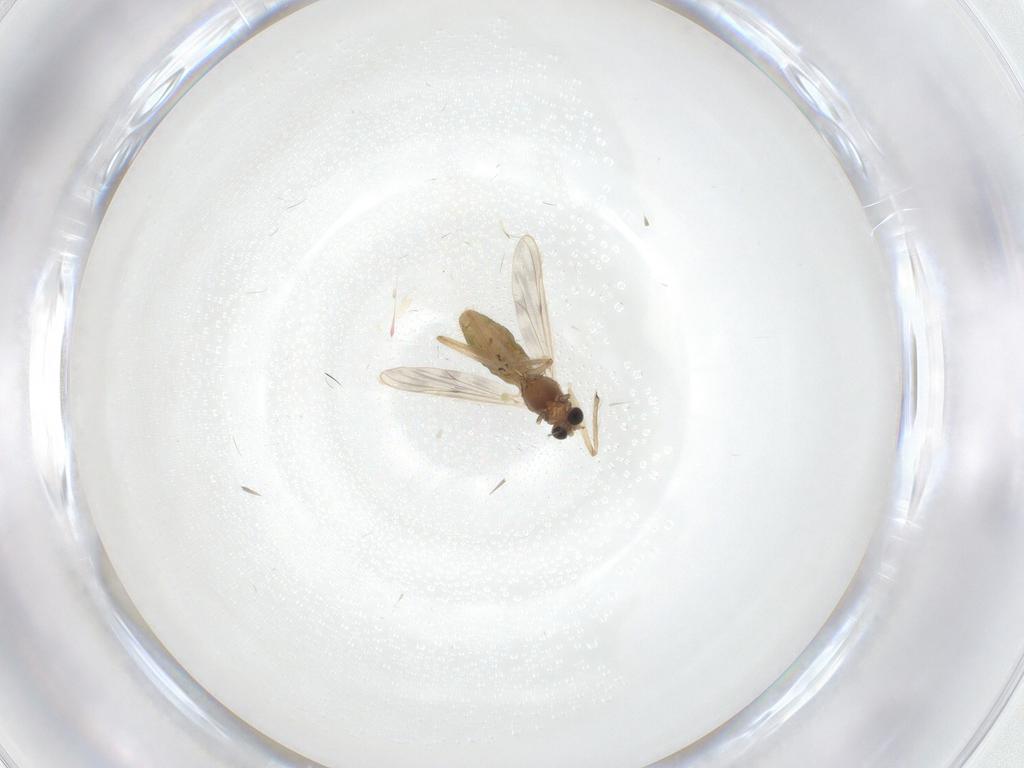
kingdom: Animalia
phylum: Arthropoda
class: Insecta
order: Diptera
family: Chironomidae
